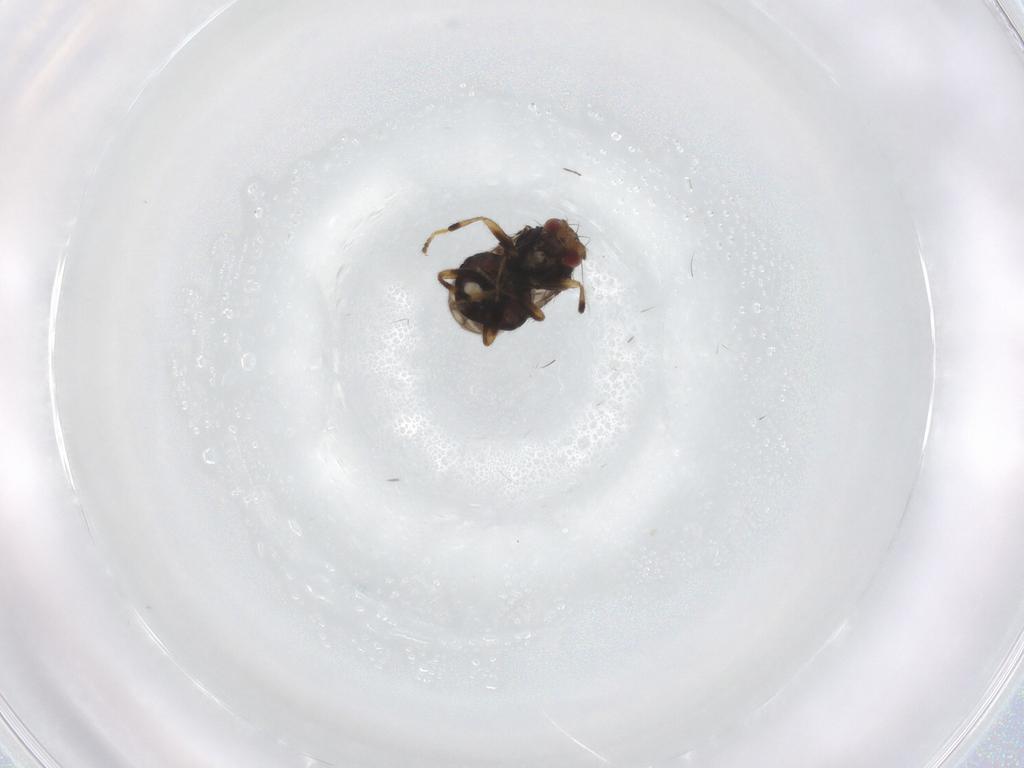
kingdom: Animalia
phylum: Arthropoda
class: Insecta
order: Diptera
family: Sphaeroceridae
